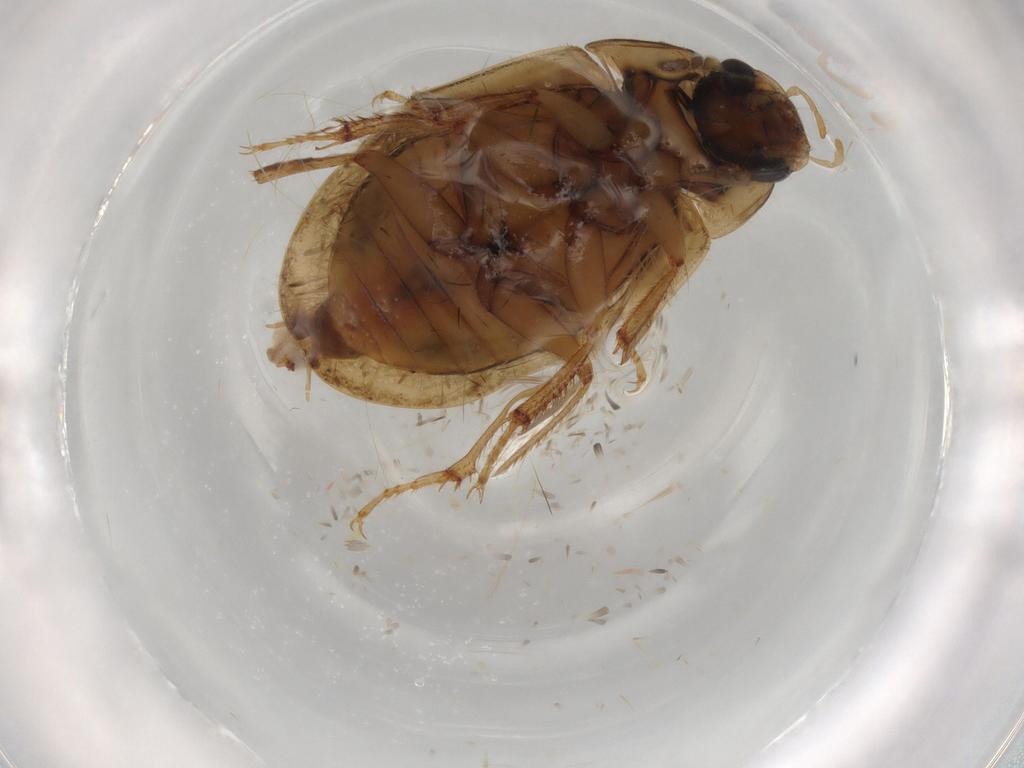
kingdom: Animalia
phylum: Arthropoda
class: Insecta
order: Coleoptera
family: Hydrophilidae
